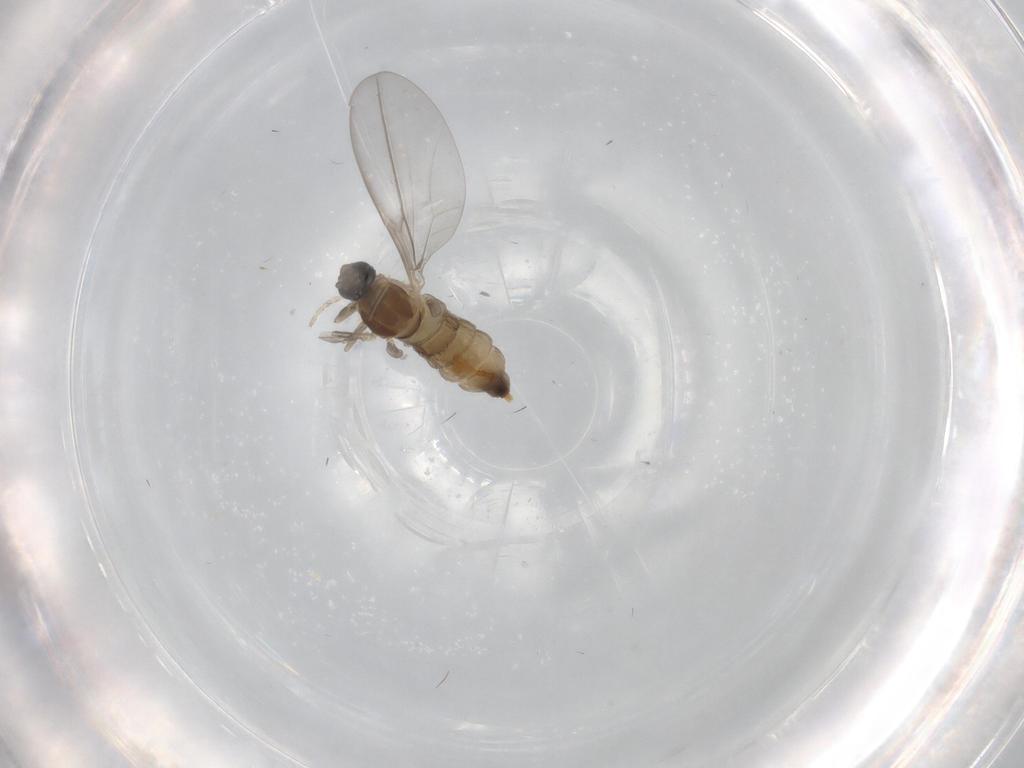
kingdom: Animalia
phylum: Arthropoda
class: Insecta
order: Diptera
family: Cecidomyiidae
